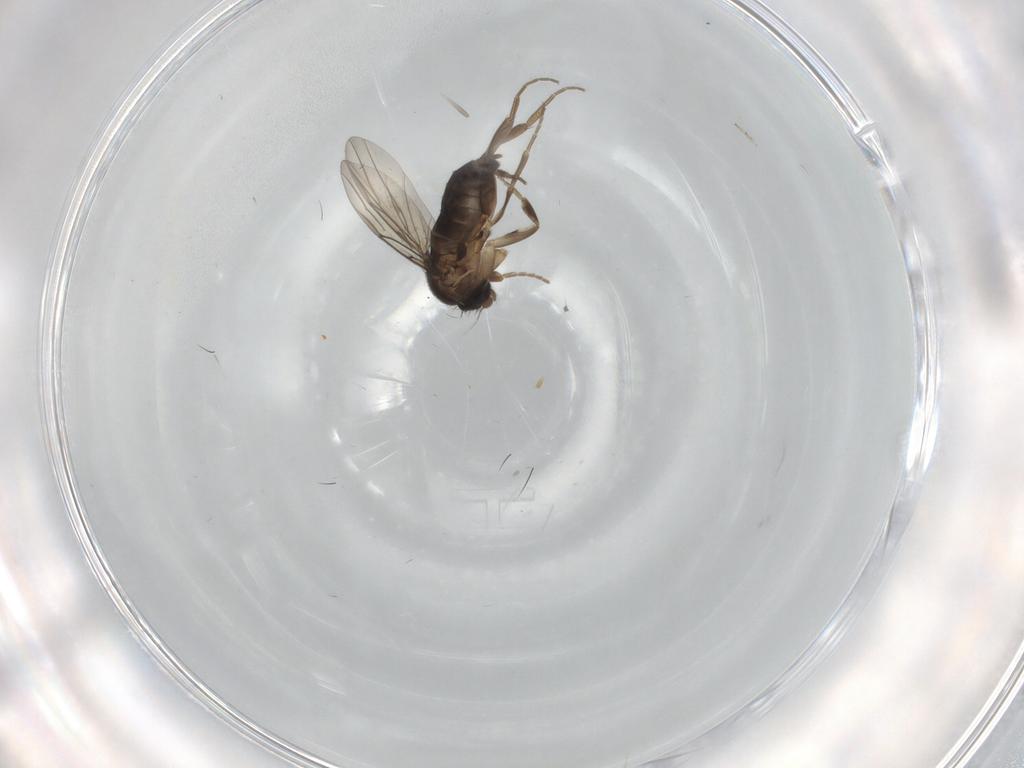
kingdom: Animalia
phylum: Arthropoda
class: Insecta
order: Diptera
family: Phoridae
